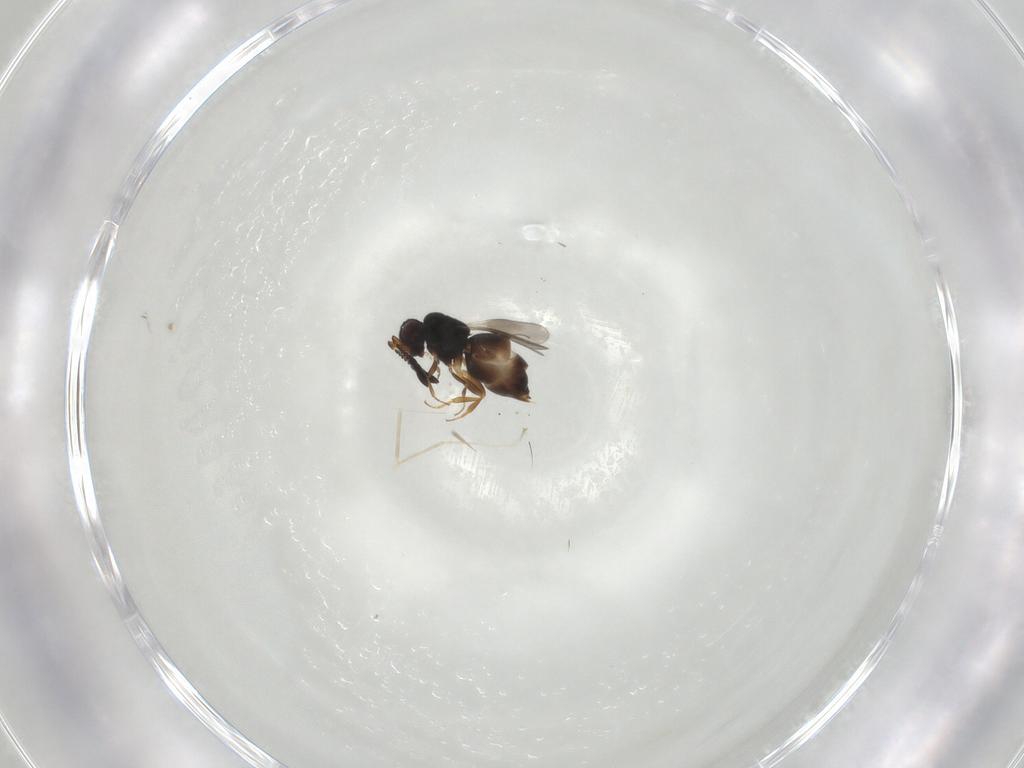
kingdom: Animalia
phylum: Arthropoda
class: Insecta
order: Hymenoptera
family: Ceraphronidae
